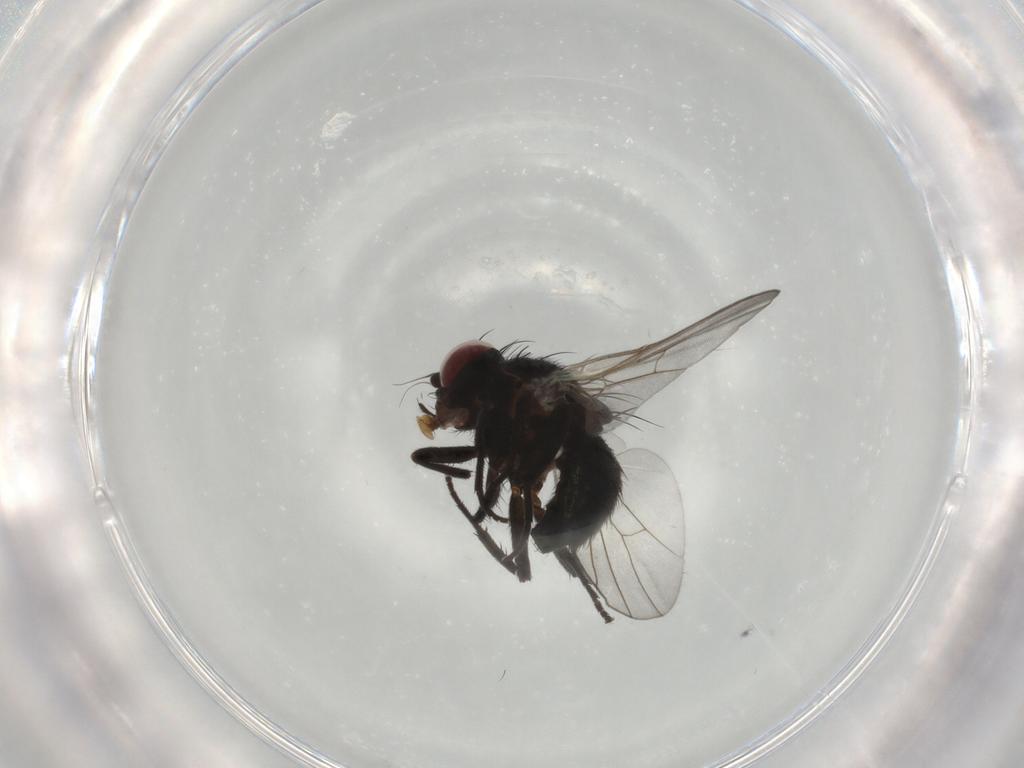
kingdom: Animalia
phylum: Arthropoda
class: Insecta
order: Diptera
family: Agromyzidae
